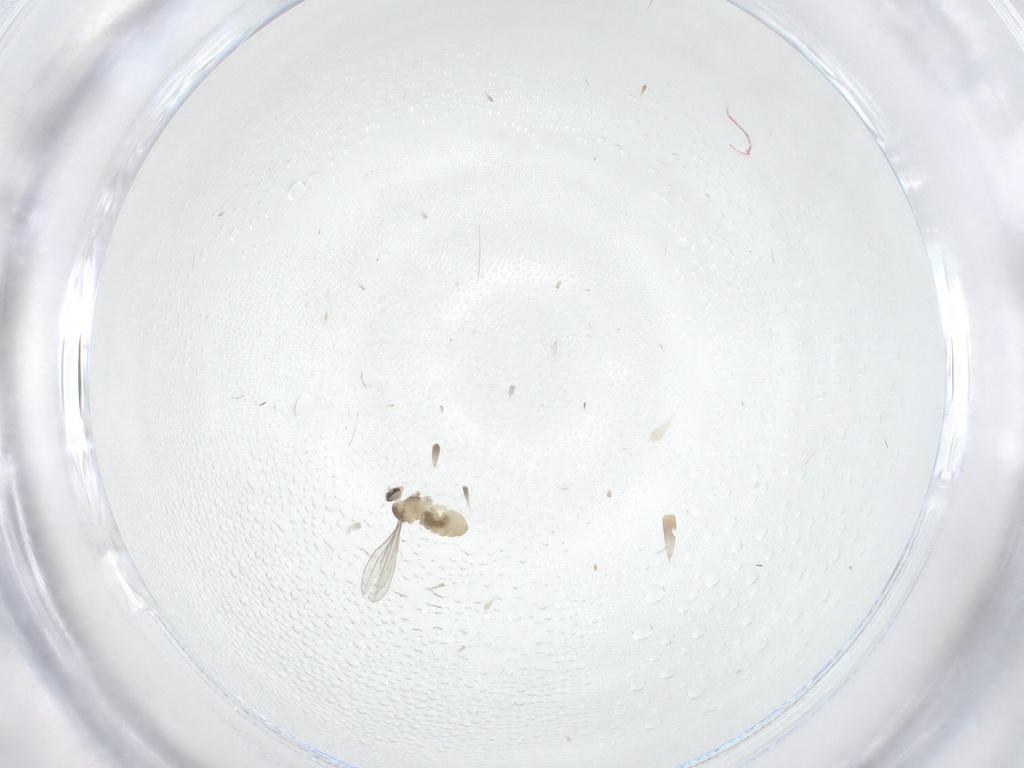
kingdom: Animalia
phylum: Arthropoda
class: Insecta
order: Diptera
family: Cecidomyiidae
